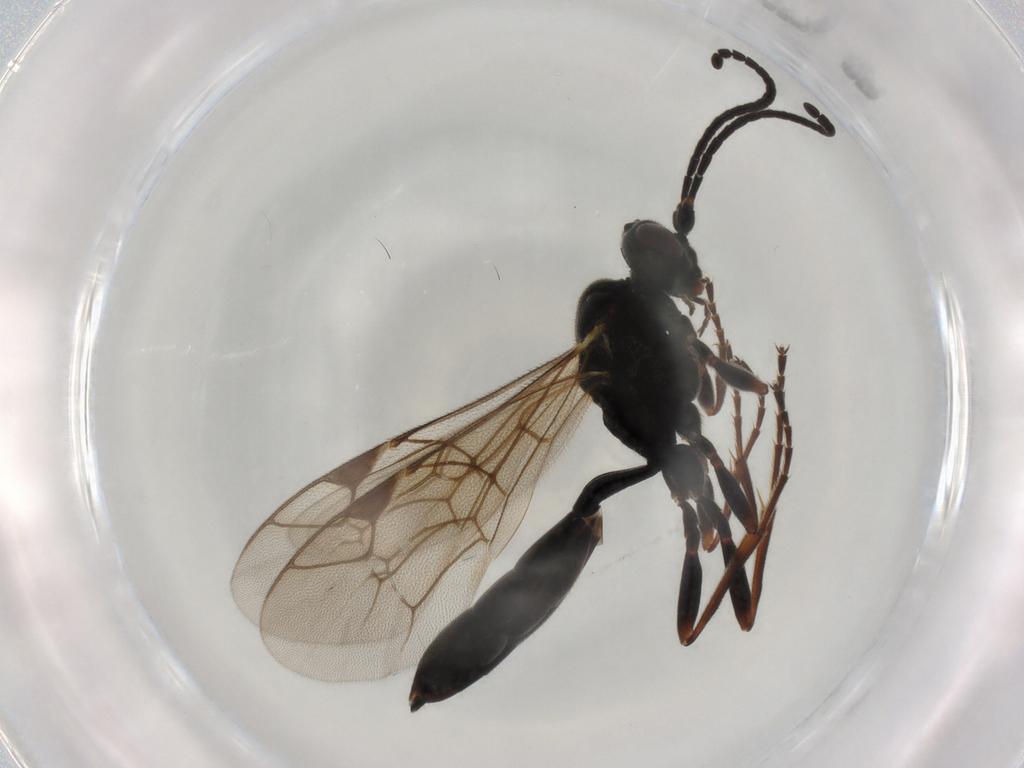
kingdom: Animalia
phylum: Arthropoda
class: Insecta
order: Hymenoptera
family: Ichneumonidae
